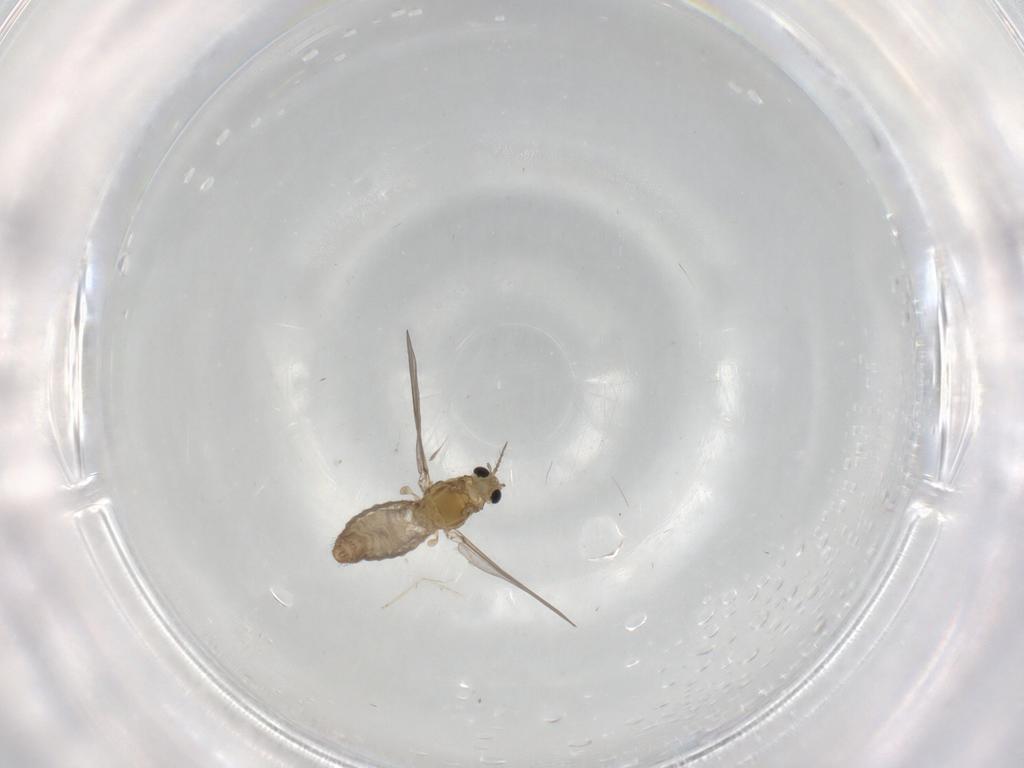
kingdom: Animalia
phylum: Arthropoda
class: Insecta
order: Diptera
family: Chironomidae
